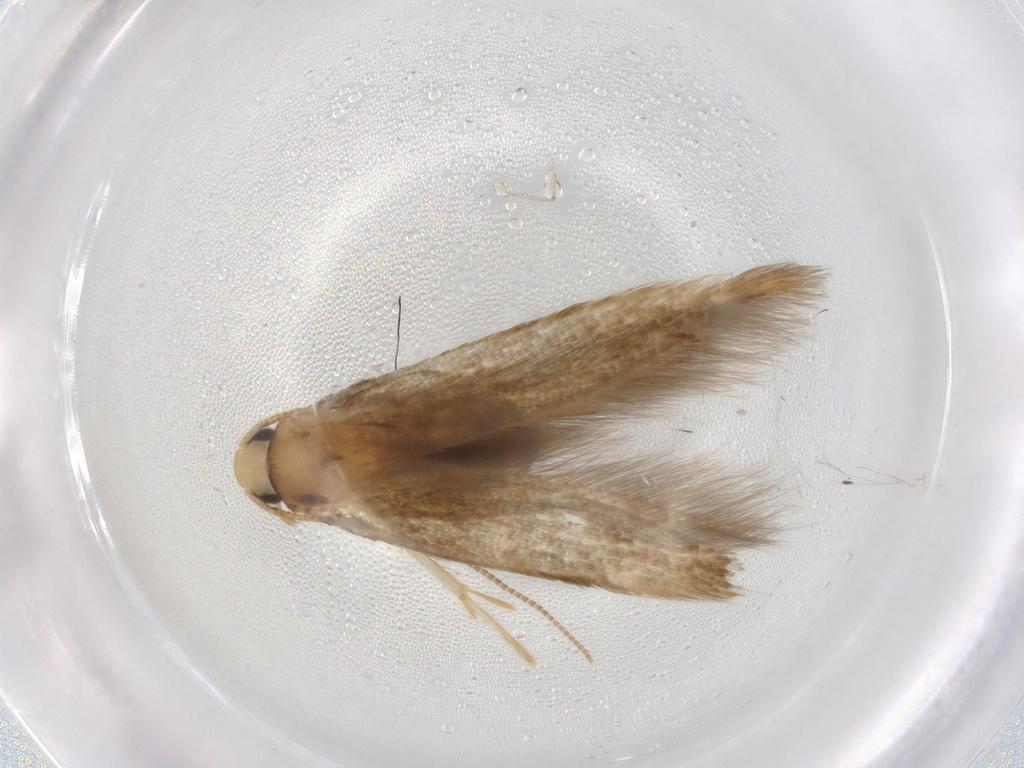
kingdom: Animalia
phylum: Arthropoda
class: Insecta
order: Lepidoptera
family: Tineidae
